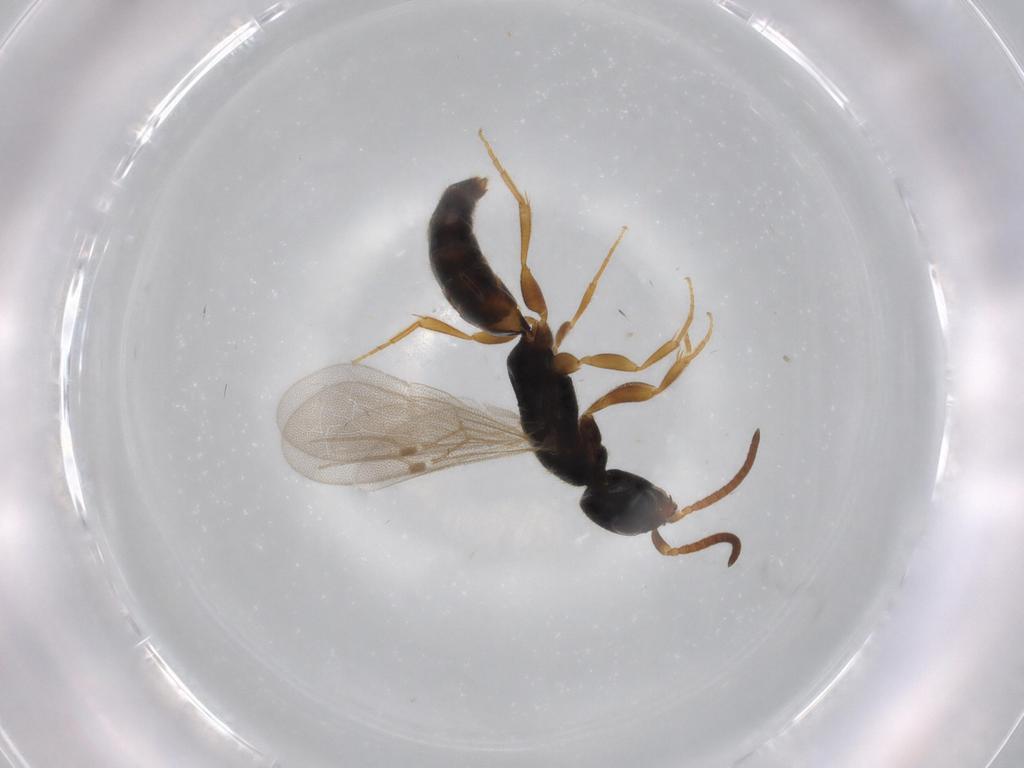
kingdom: Animalia
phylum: Arthropoda
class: Insecta
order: Hymenoptera
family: Bethylidae
